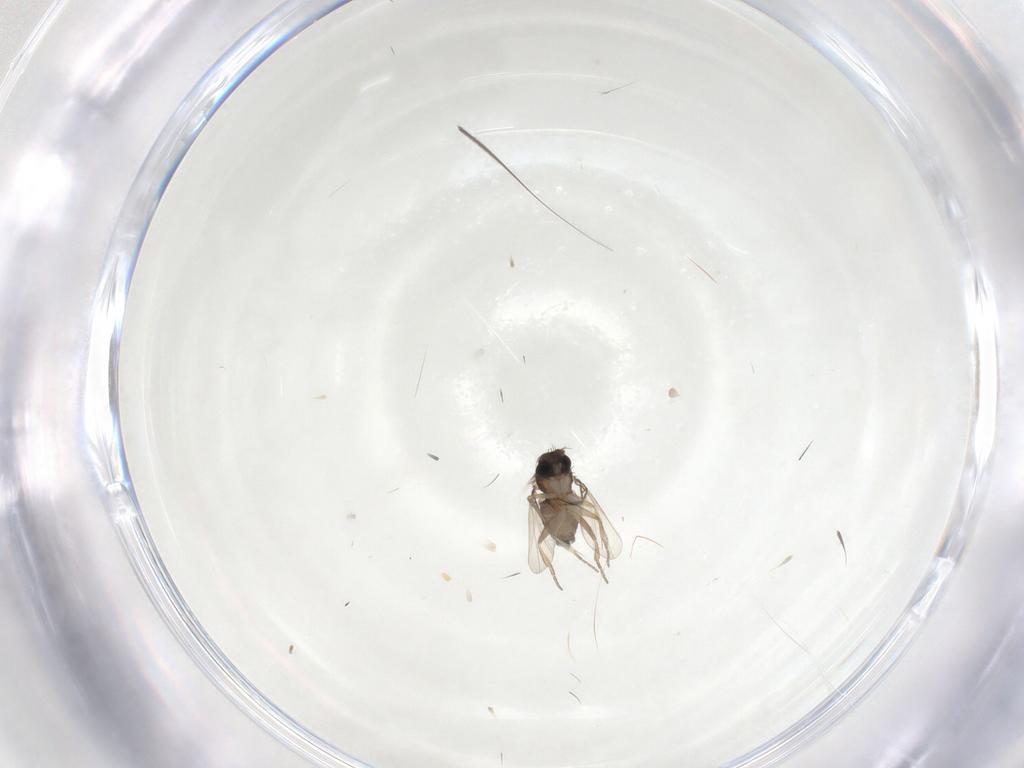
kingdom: Animalia
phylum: Arthropoda
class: Insecta
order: Diptera
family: Phoridae
